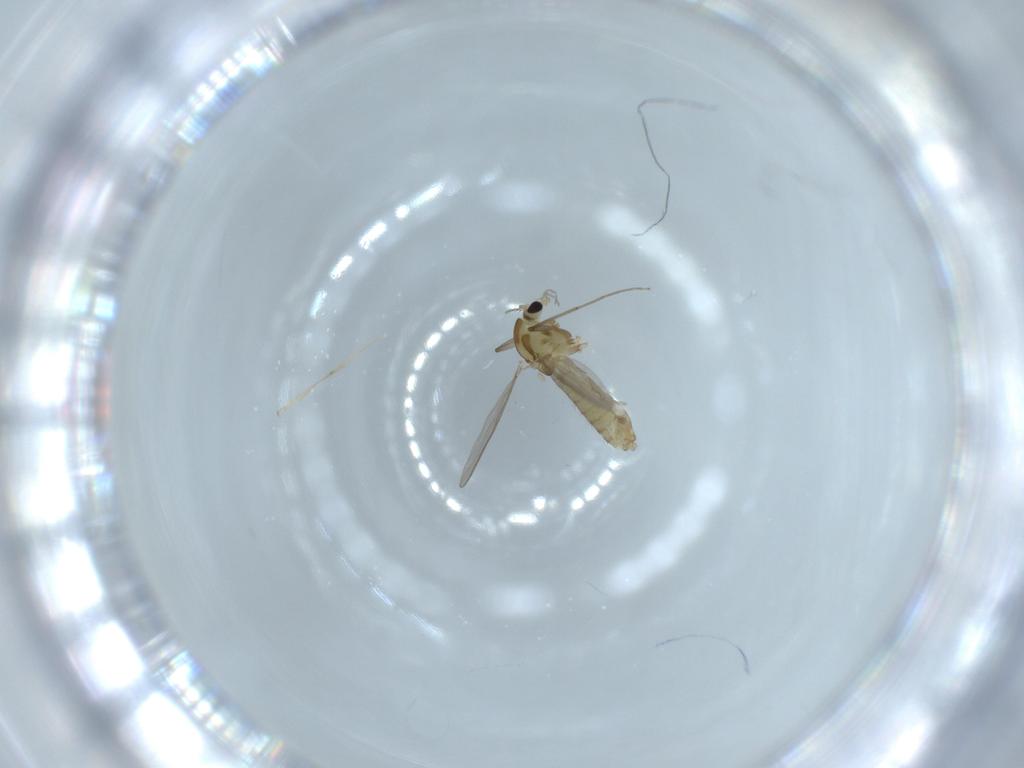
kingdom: Animalia
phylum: Arthropoda
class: Insecta
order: Diptera
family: Chironomidae
